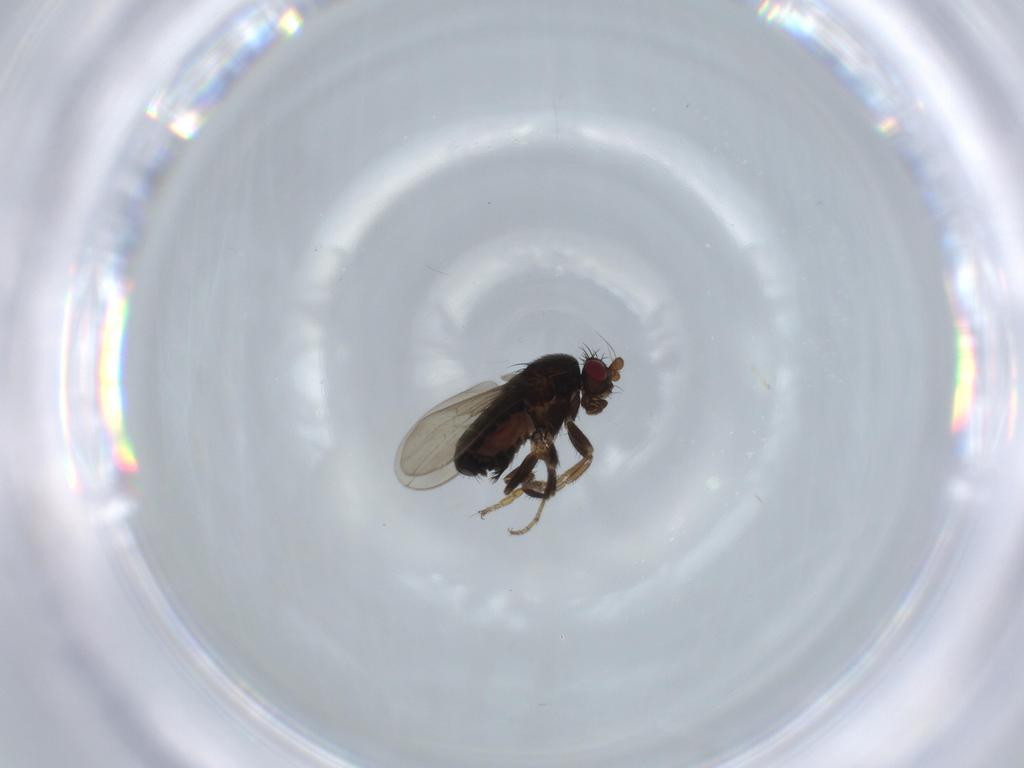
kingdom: Animalia
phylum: Arthropoda
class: Insecta
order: Diptera
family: Sphaeroceridae
